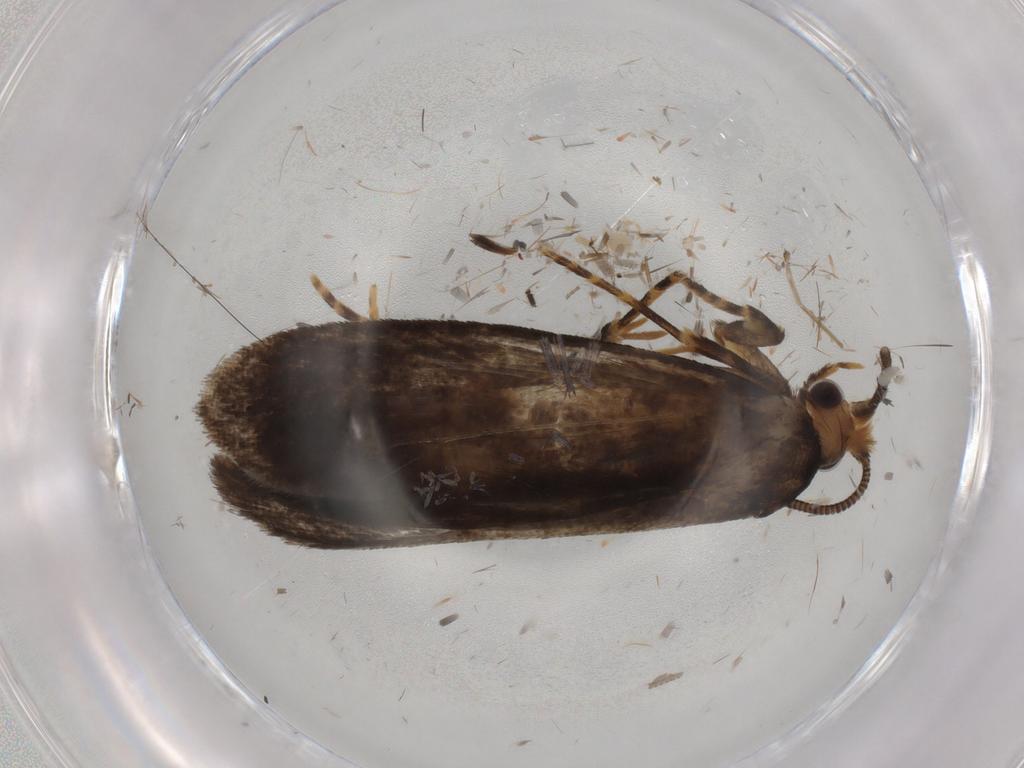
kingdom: Animalia
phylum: Arthropoda
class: Insecta
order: Lepidoptera
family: Tineidae
